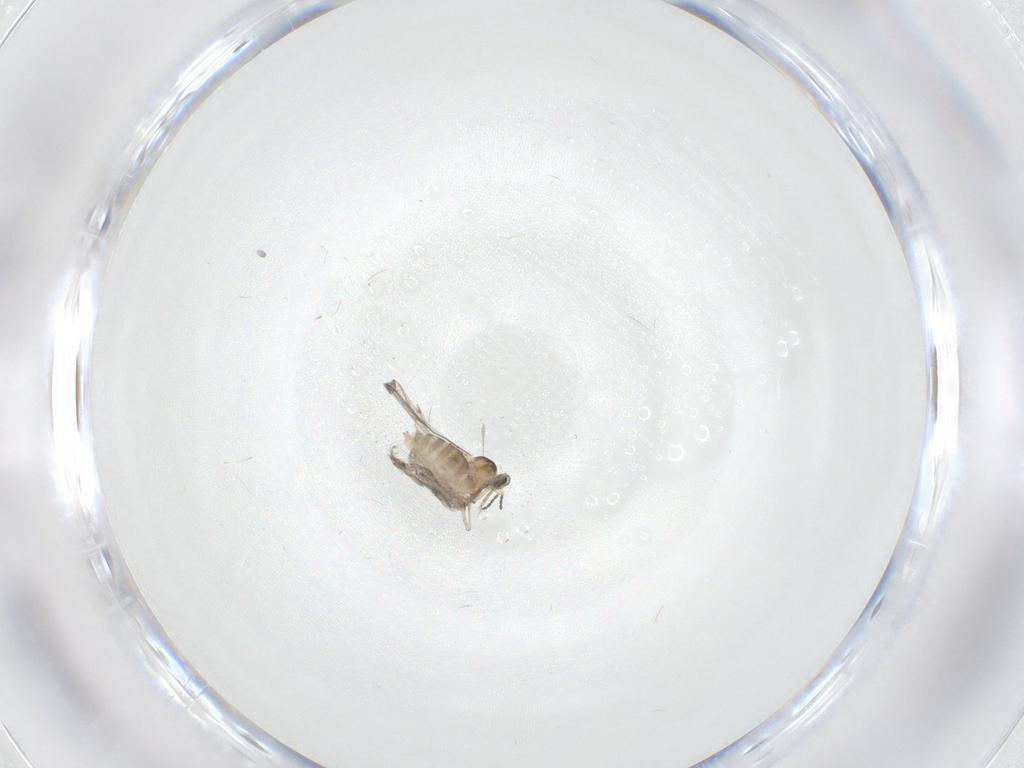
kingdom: Animalia
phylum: Arthropoda
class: Insecta
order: Diptera
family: Cecidomyiidae
